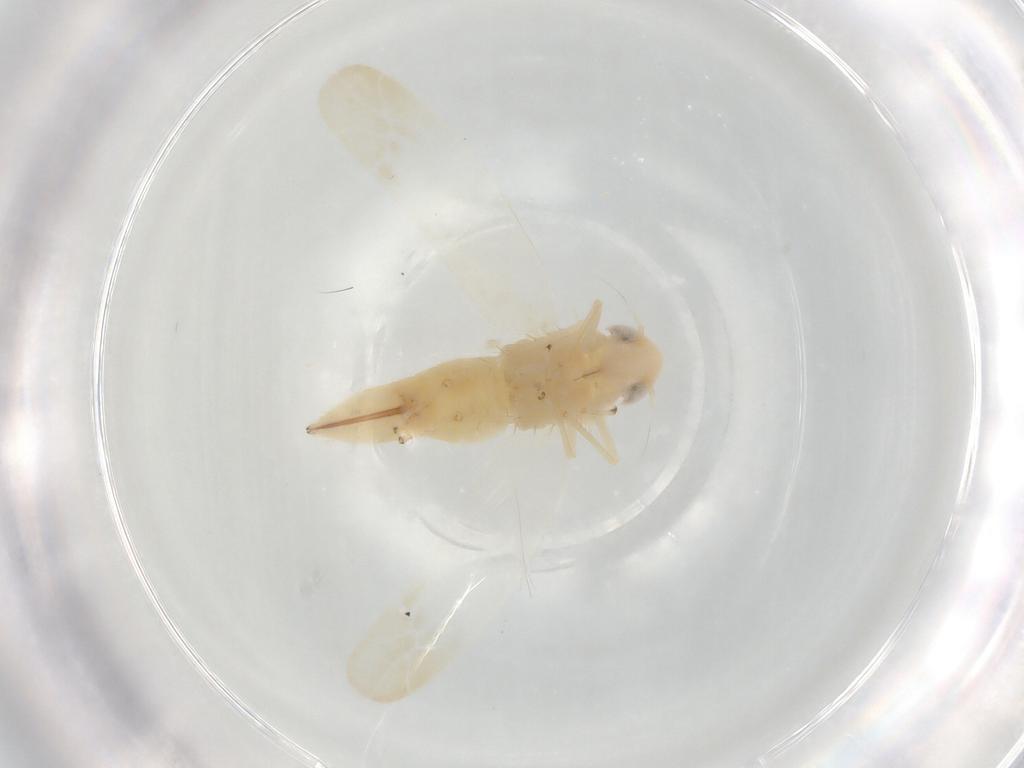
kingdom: Animalia
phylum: Arthropoda
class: Insecta
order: Hemiptera
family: Cicadellidae
